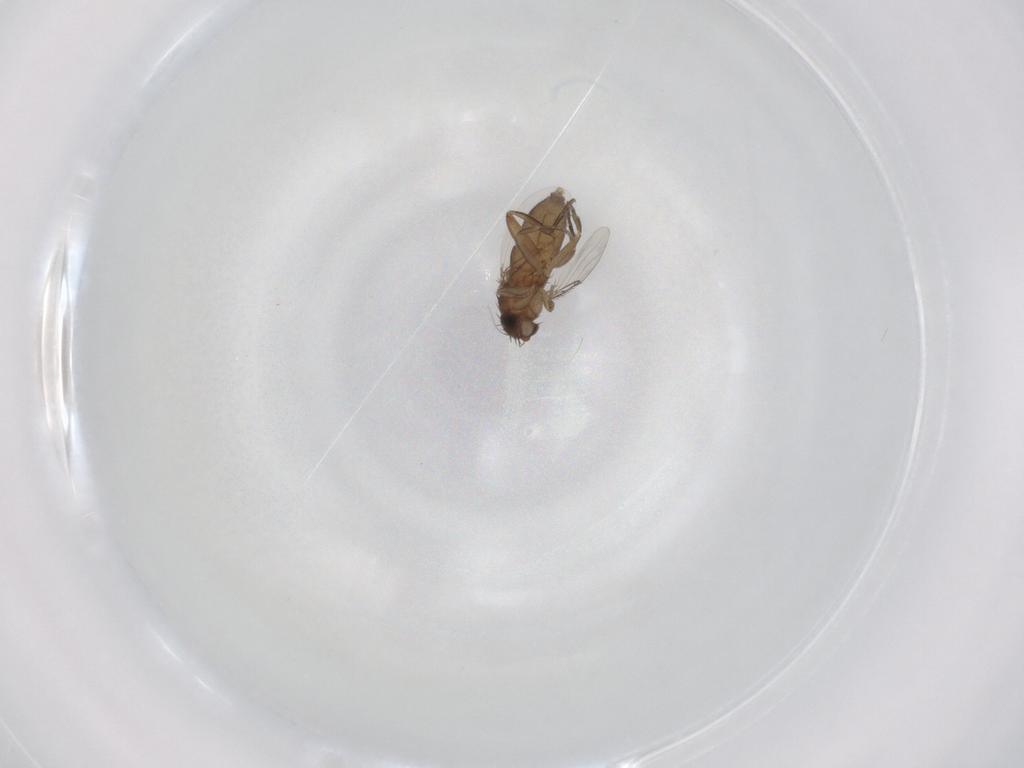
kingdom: Animalia
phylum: Arthropoda
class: Insecta
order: Diptera
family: Phoridae
